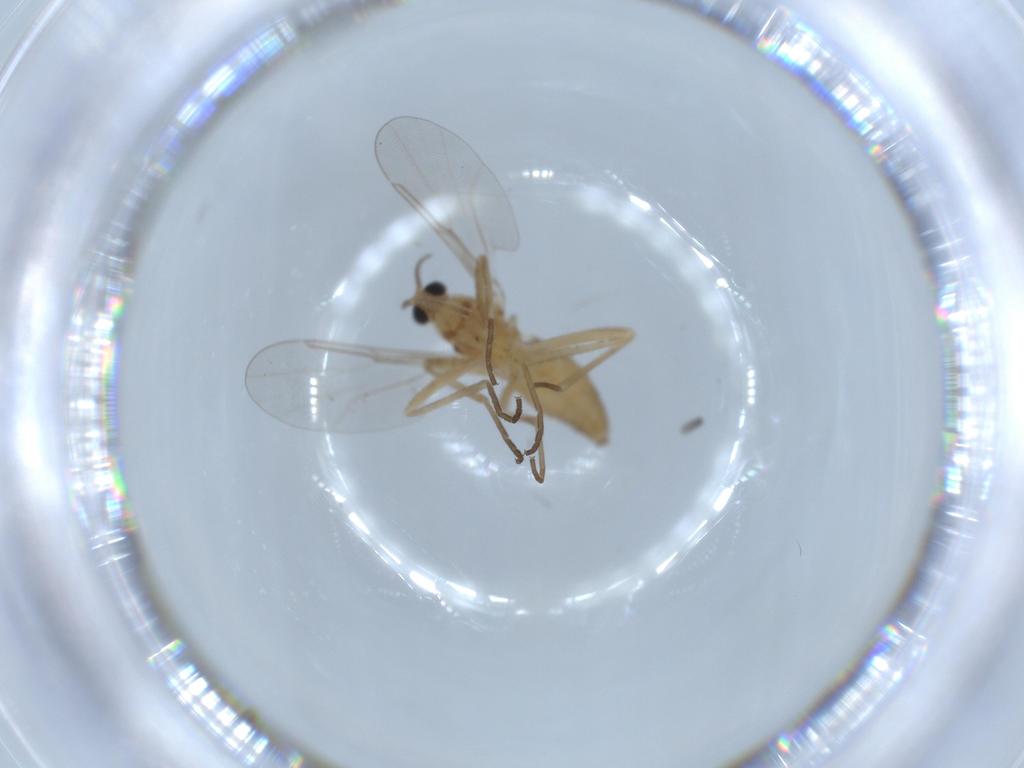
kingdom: Animalia
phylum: Arthropoda
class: Insecta
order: Diptera
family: Cecidomyiidae
